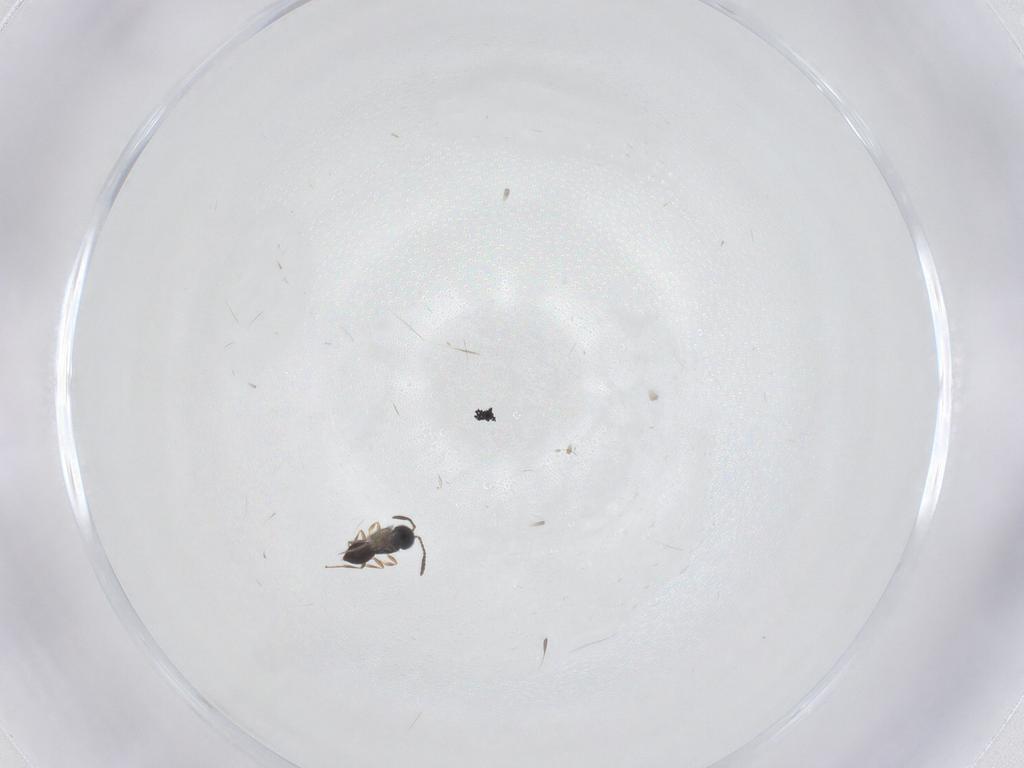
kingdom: Animalia
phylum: Arthropoda
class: Insecta
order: Hymenoptera
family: Scelionidae
